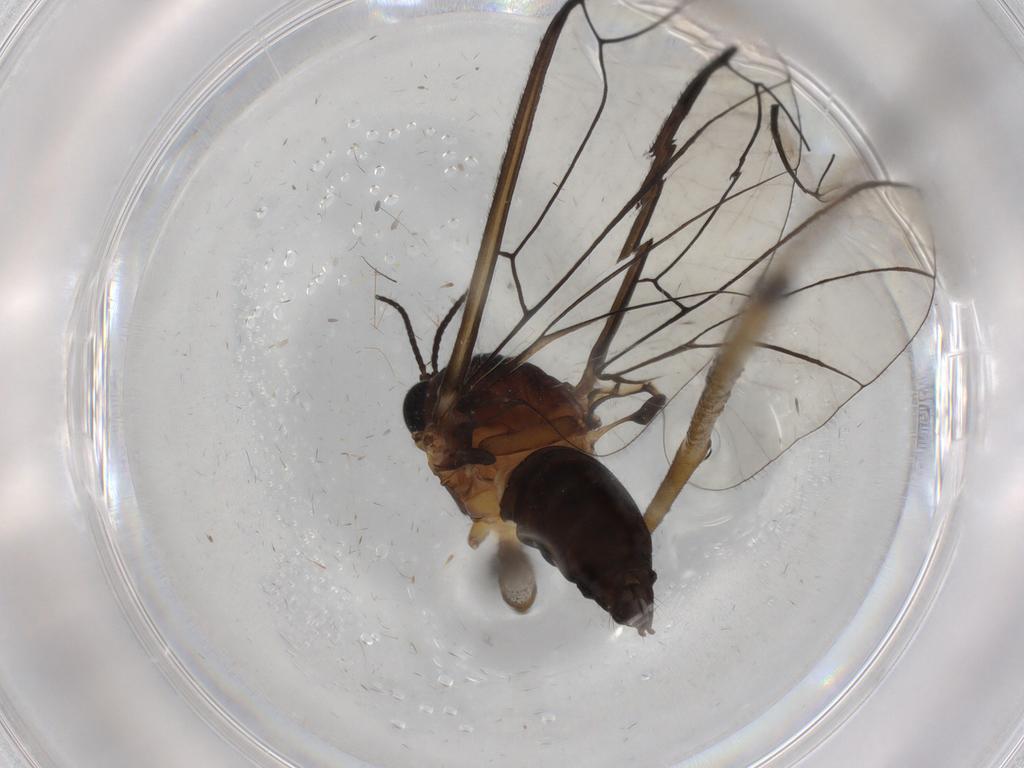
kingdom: Animalia
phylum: Arthropoda
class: Insecta
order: Diptera
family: Blephariceridae
